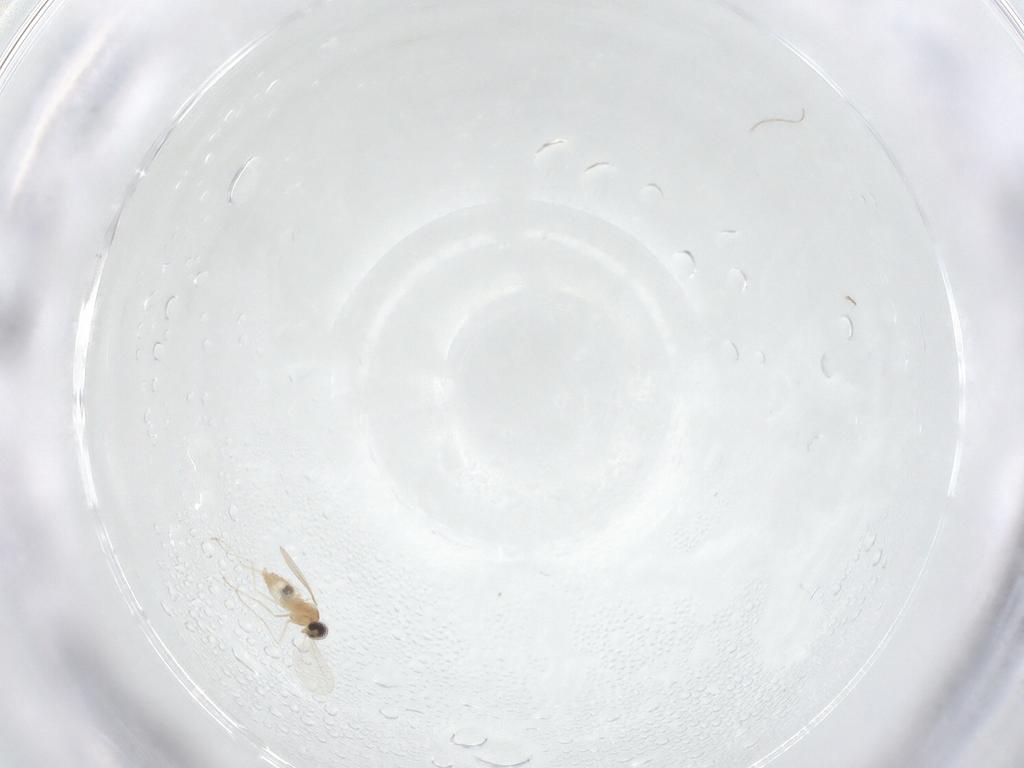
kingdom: Animalia
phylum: Arthropoda
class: Insecta
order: Diptera
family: Cecidomyiidae
